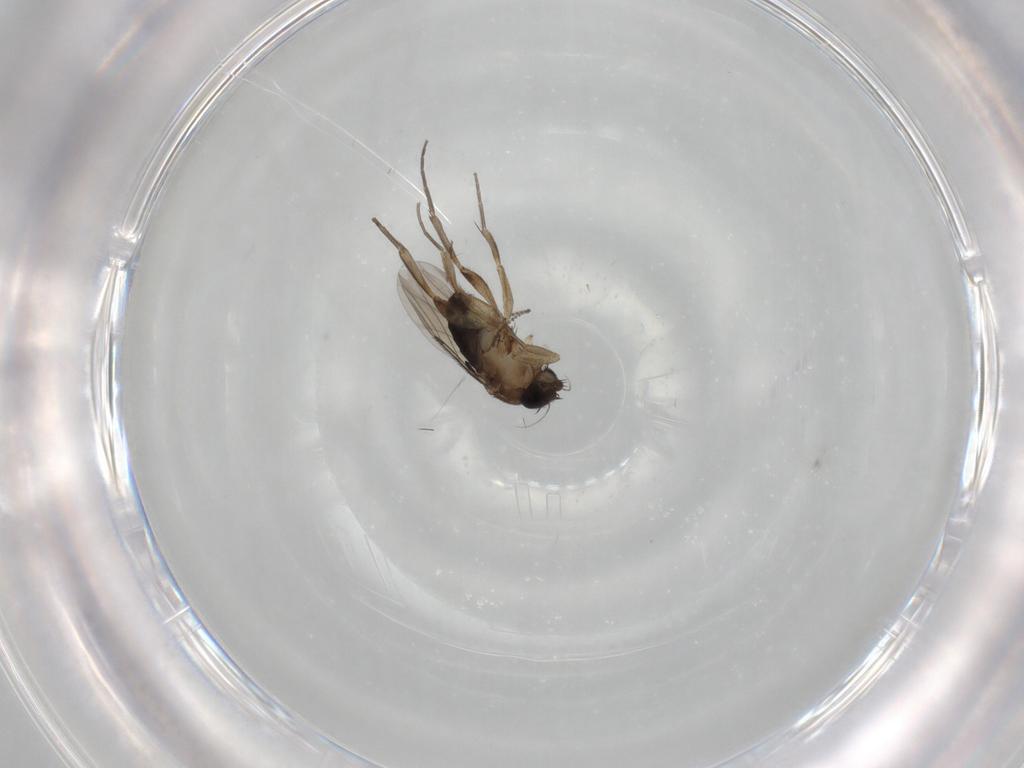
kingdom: Animalia
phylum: Arthropoda
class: Insecta
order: Diptera
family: Phoridae
